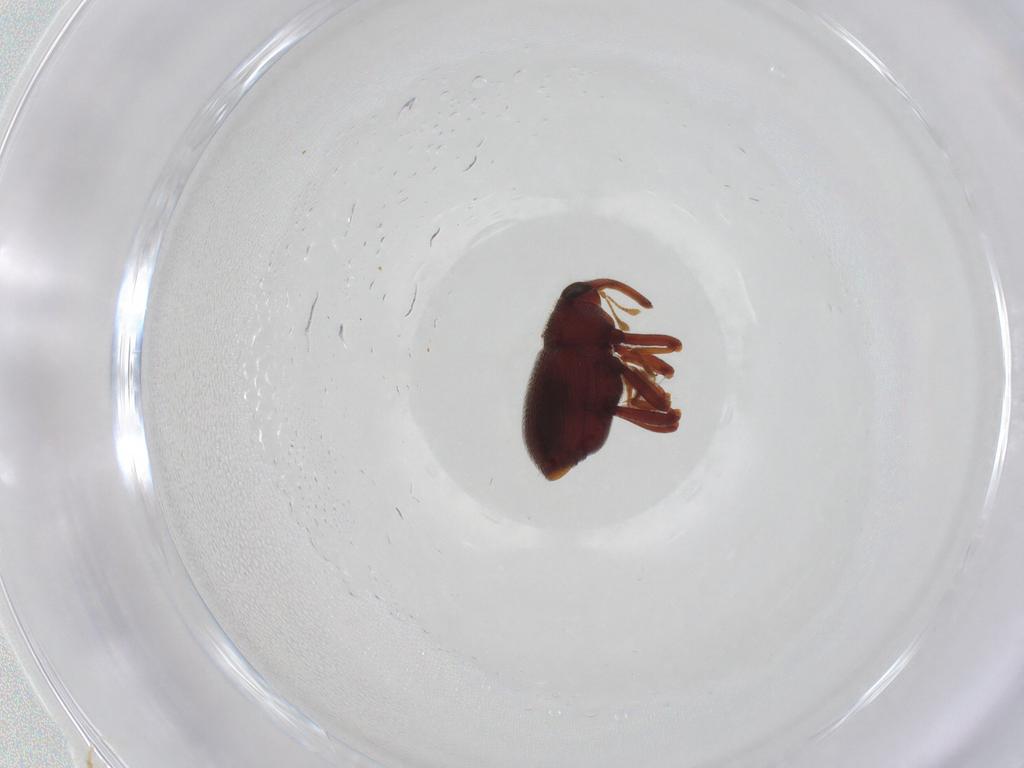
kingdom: Animalia
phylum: Arthropoda
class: Insecta
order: Coleoptera
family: Curculionidae
